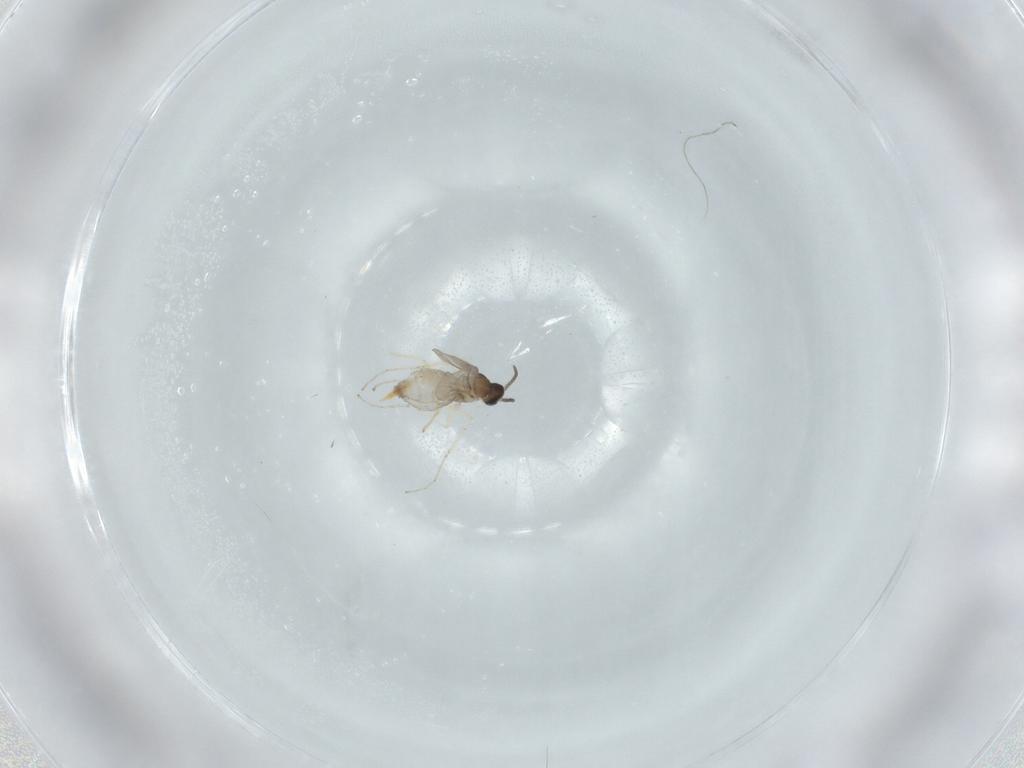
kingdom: Animalia
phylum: Arthropoda
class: Insecta
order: Diptera
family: Cecidomyiidae
